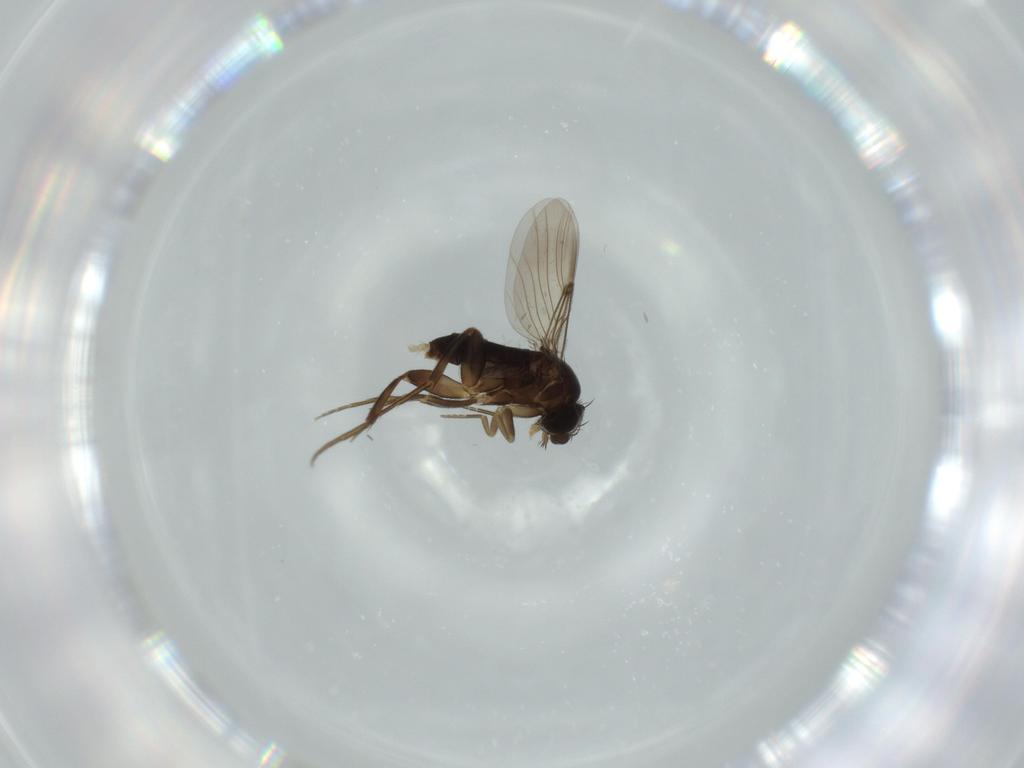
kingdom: Animalia
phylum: Arthropoda
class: Insecta
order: Diptera
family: Phoridae
